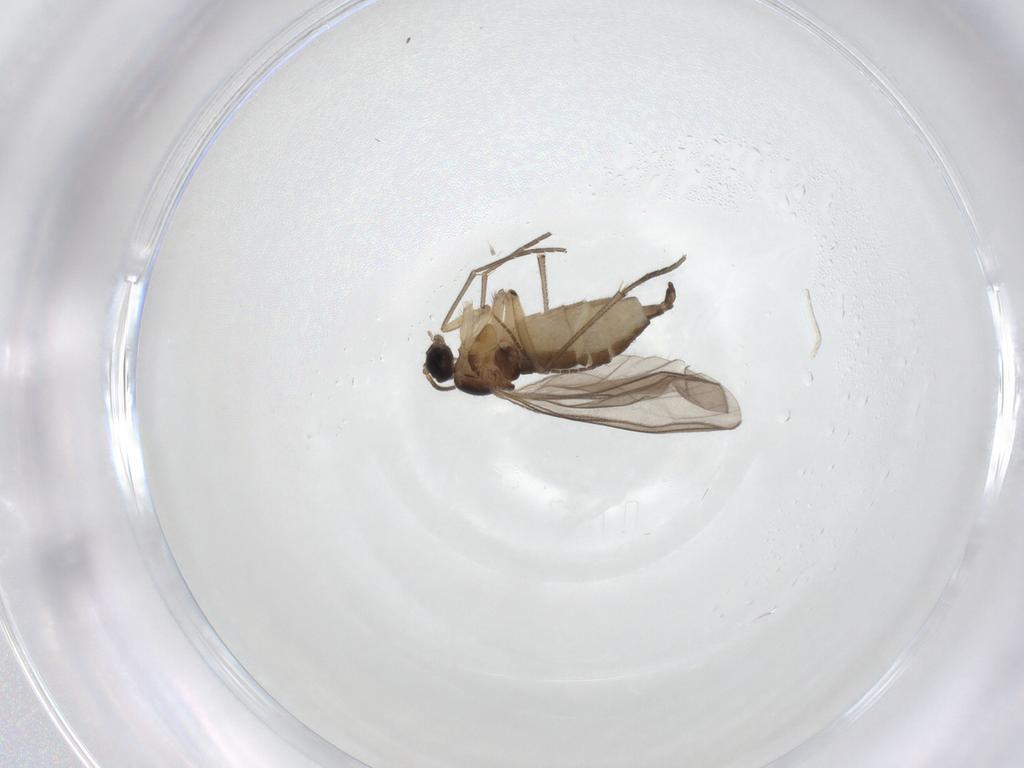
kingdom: Animalia
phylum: Arthropoda
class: Insecta
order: Diptera
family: Sciaridae
